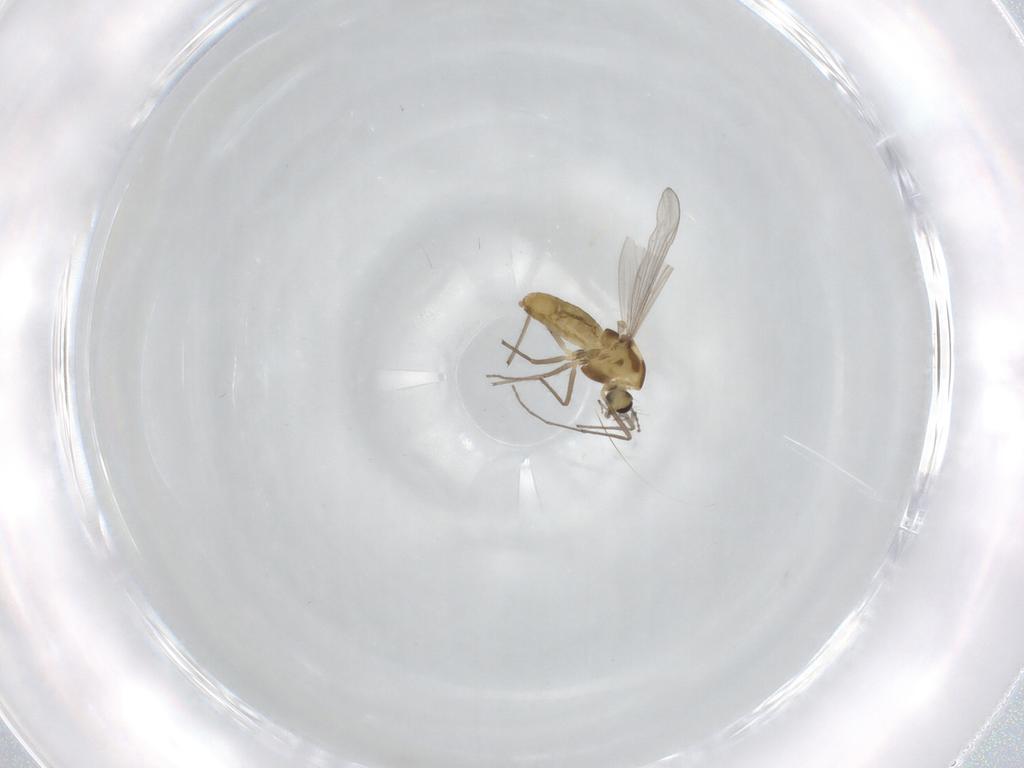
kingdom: Animalia
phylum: Arthropoda
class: Insecta
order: Diptera
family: Chironomidae
